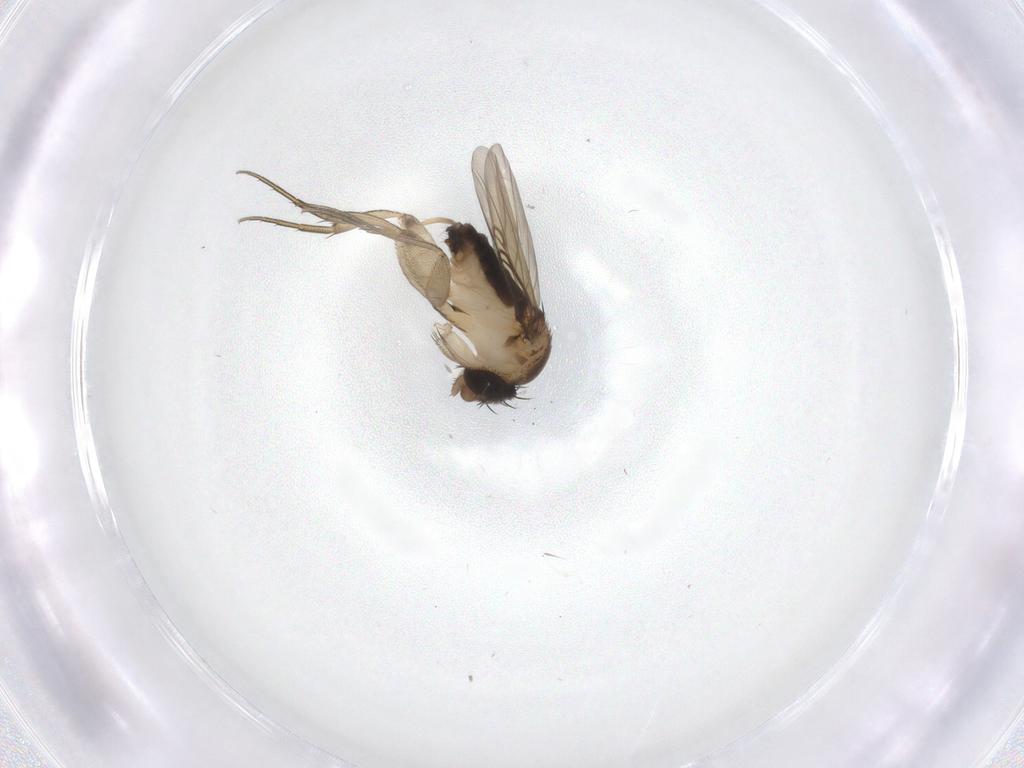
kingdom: Animalia
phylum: Arthropoda
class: Insecta
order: Diptera
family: Phoridae
